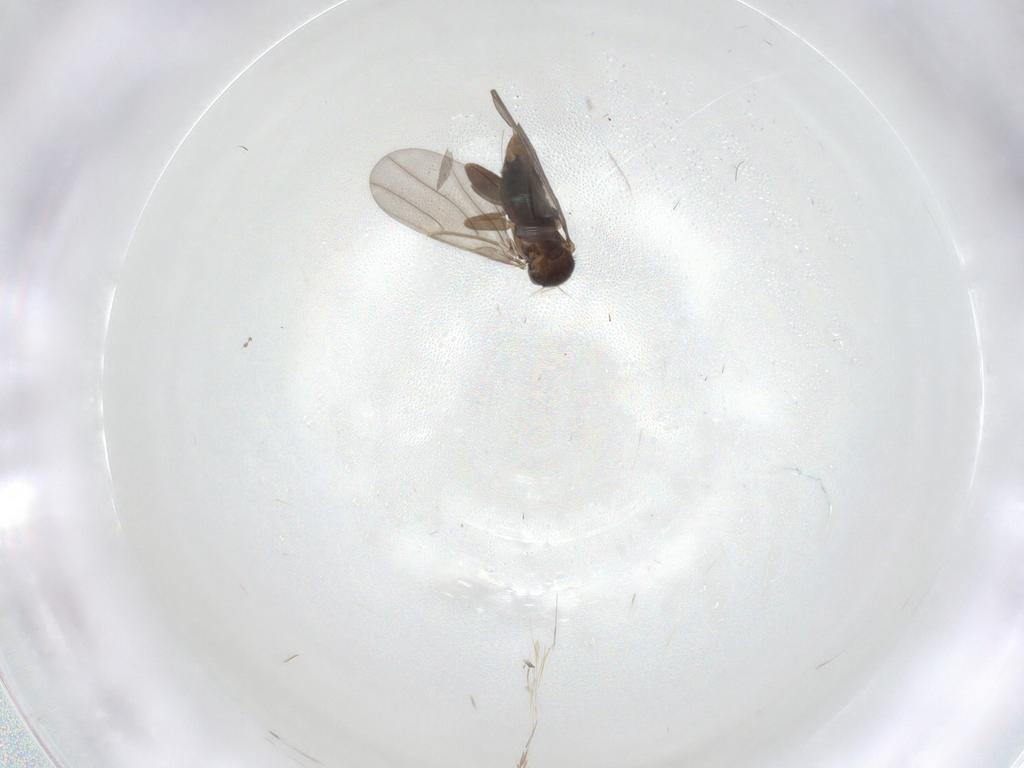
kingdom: Animalia
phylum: Arthropoda
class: Insecta
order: Diptera
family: Phoridae
